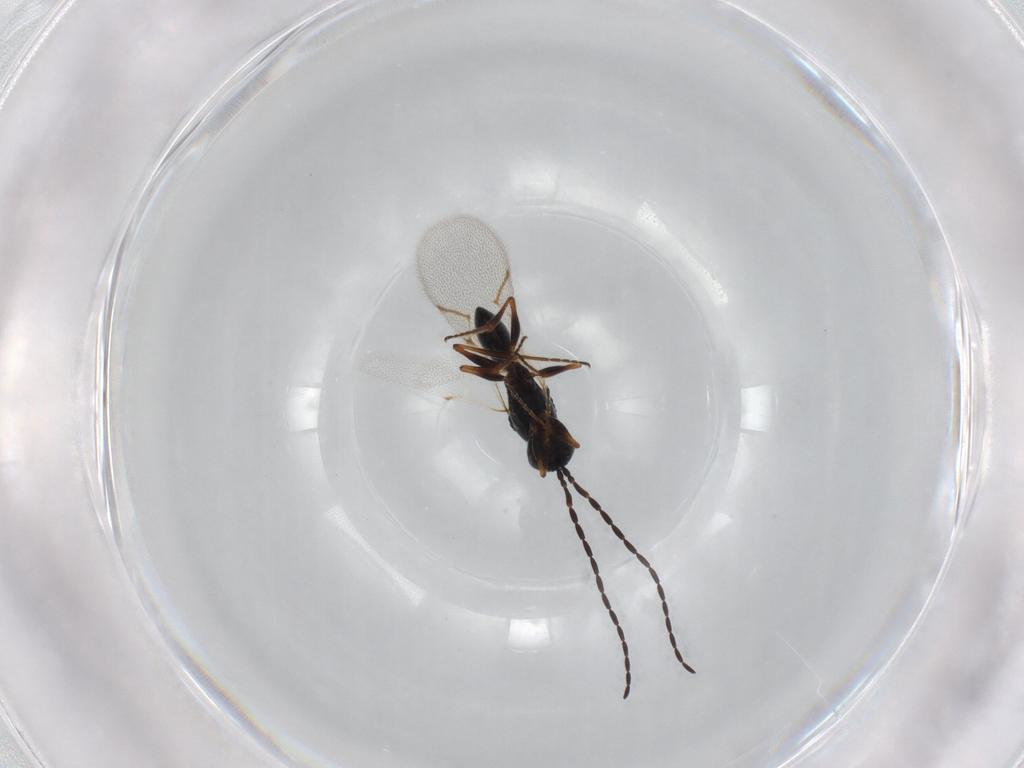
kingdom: Animalia
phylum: Arthropoda
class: Insecta
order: Hymenoptera
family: Figitidae
